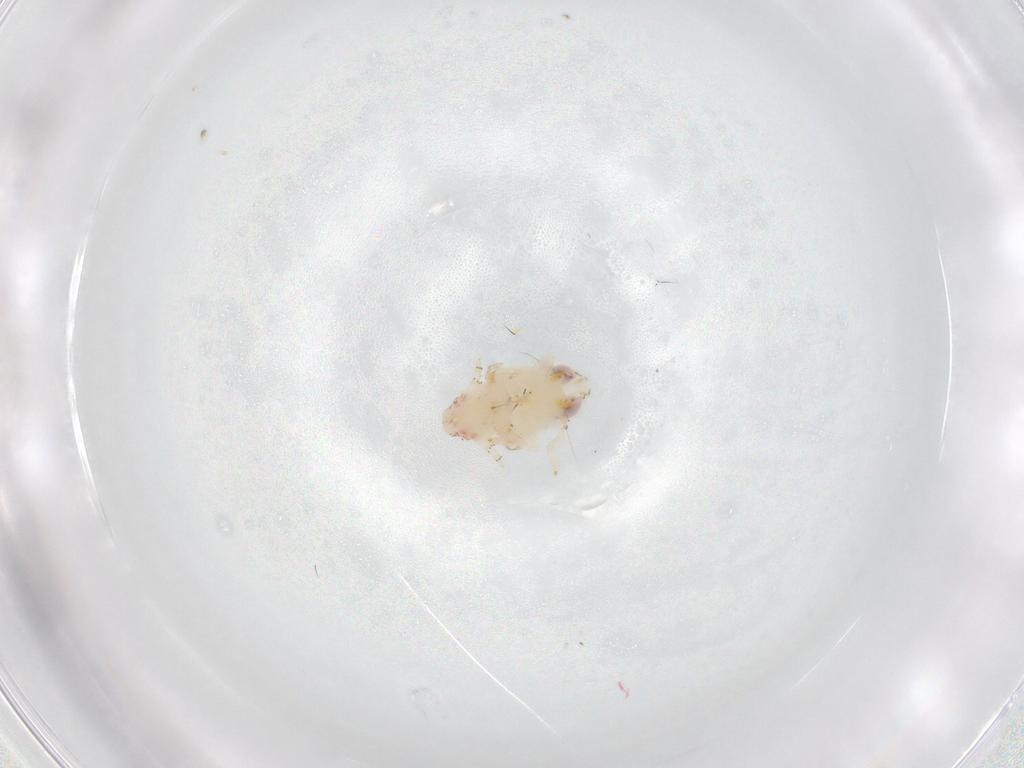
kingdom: Animalia
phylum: Arthropoda
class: Insecta
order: Hemiptera
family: Nogodinidae
